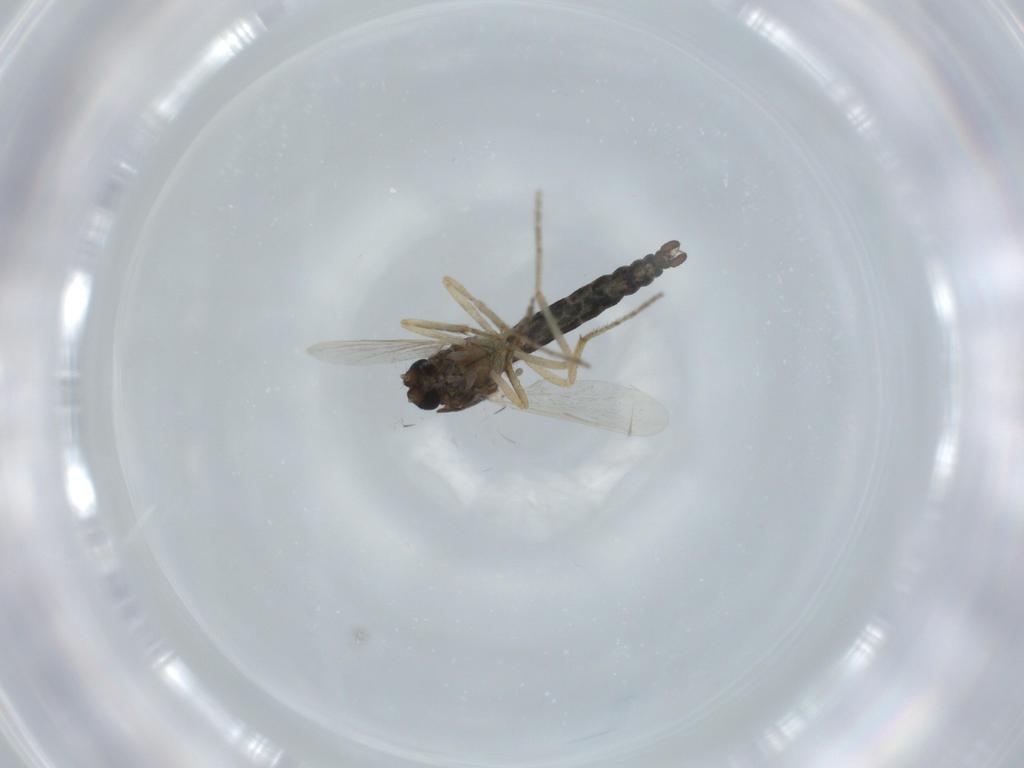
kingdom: Animalia
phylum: Arthropoda
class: Insecta
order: Diptera
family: Ceratopogonidae
